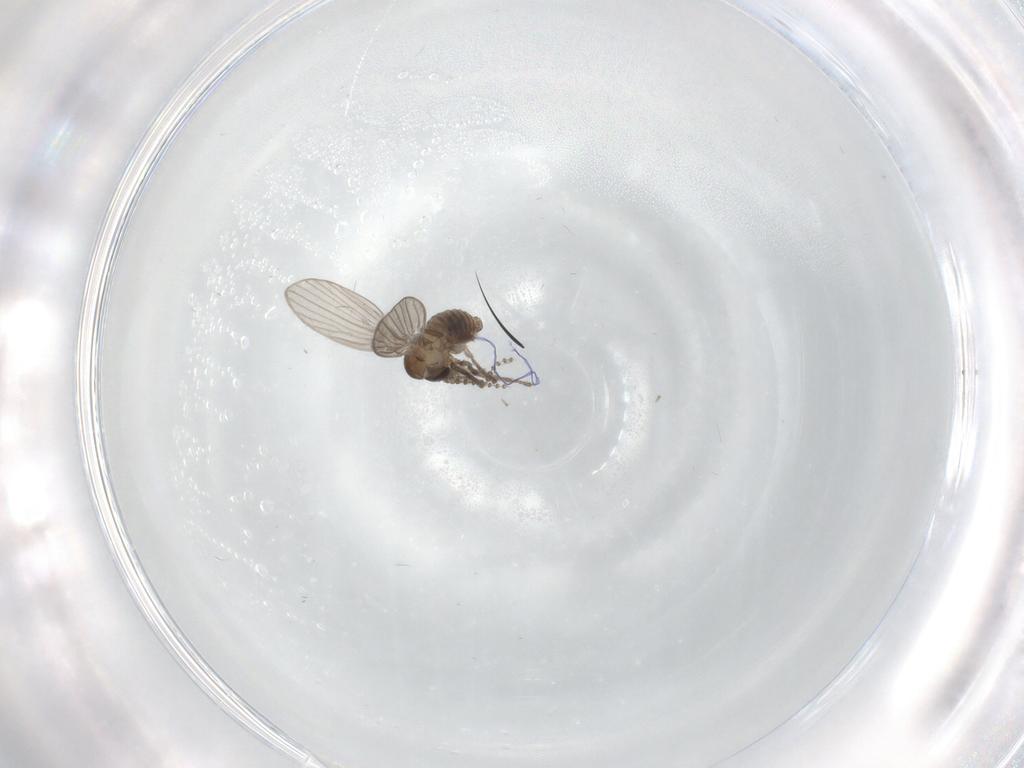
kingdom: Animalia
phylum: Arthropoda
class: Insecta
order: Diptera
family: Psychodidae
